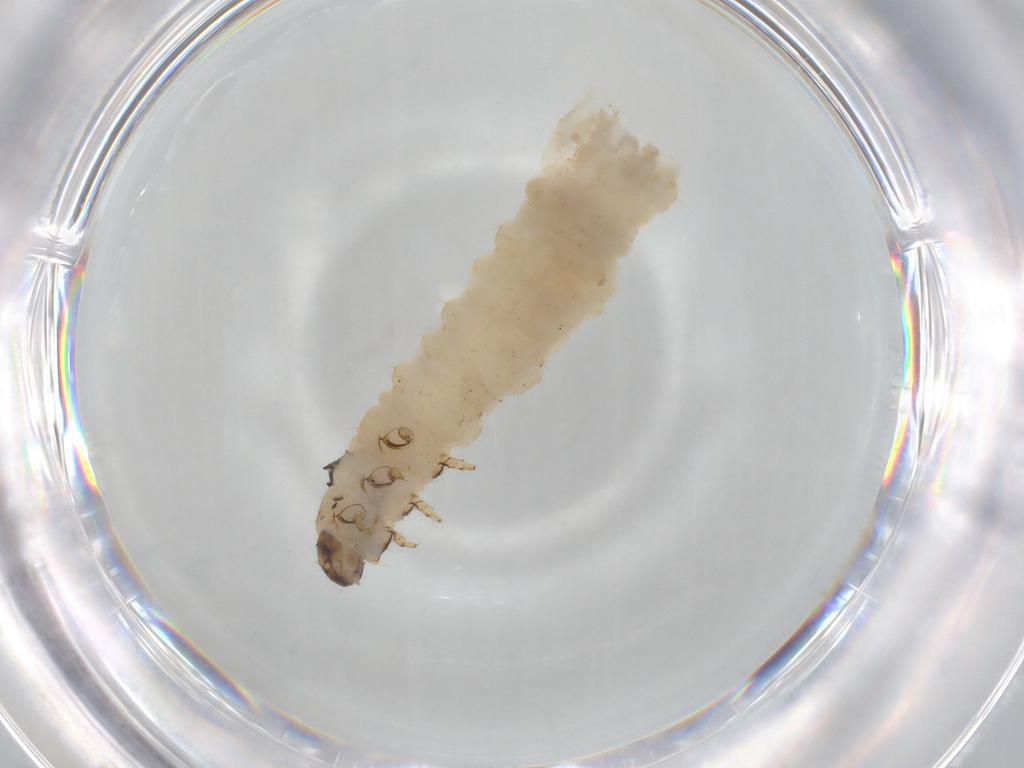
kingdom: Animalia
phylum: Arthropoda
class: Insecta
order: Coleoptera
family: Chrysomelidae
